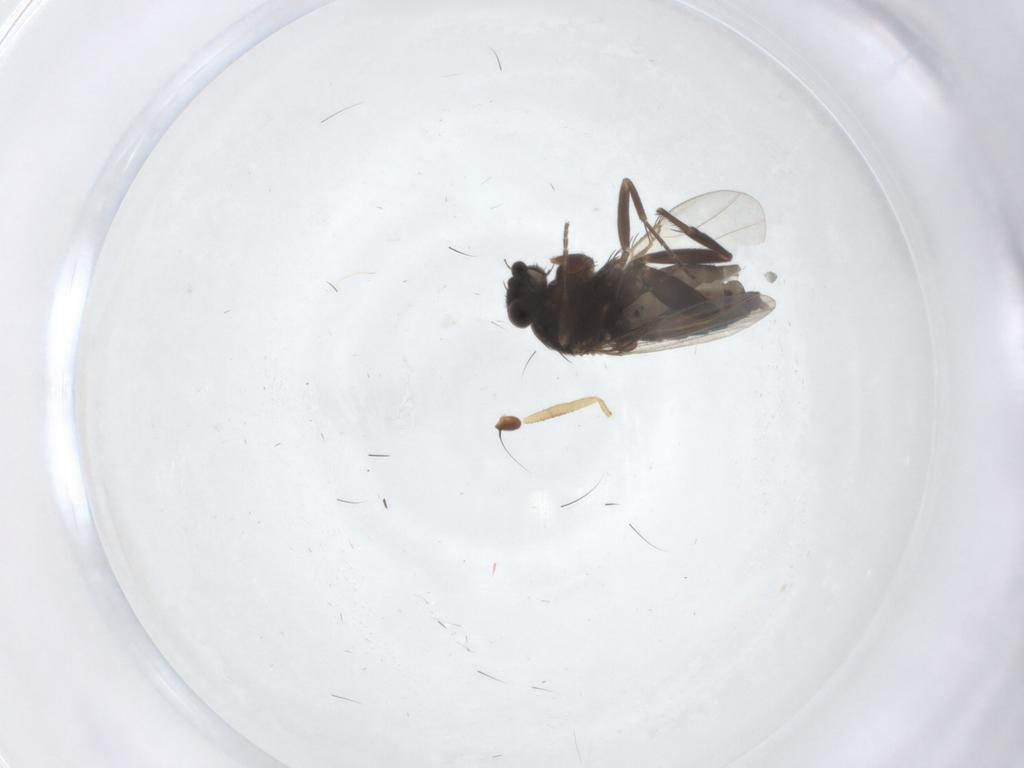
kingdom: Animalia
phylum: Arthropoda
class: Insecta
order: Diptera
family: Phoridae
